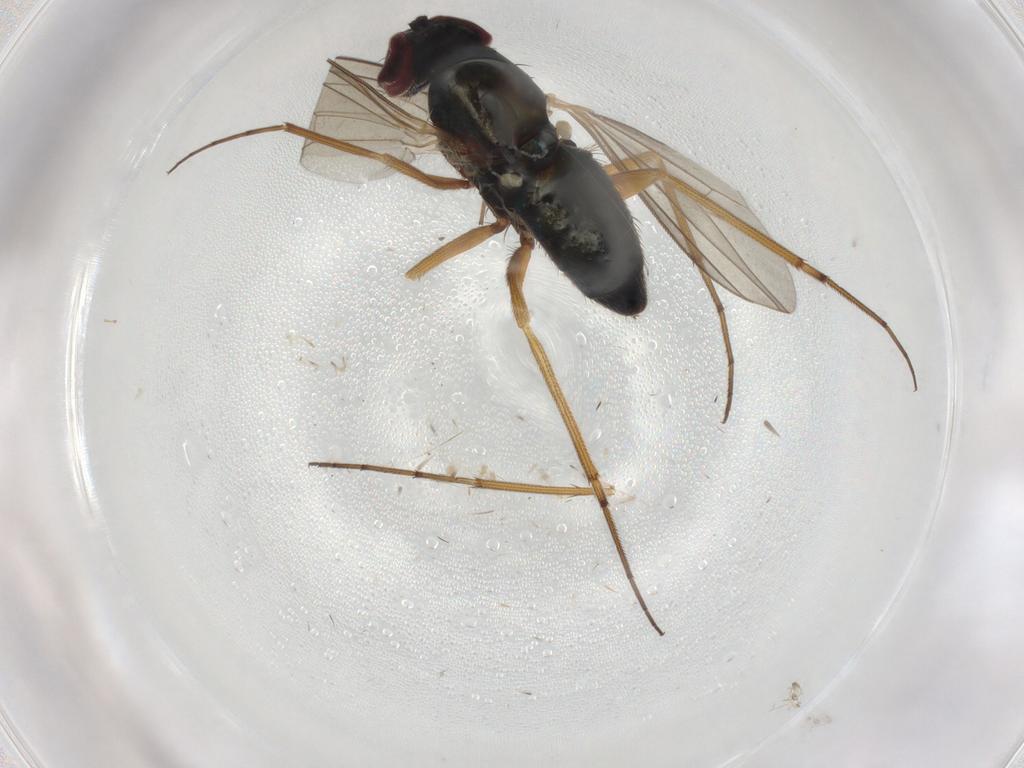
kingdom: Animalia
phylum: Arthropoda
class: Insecta
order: Diptera
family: Dolichopodidae
